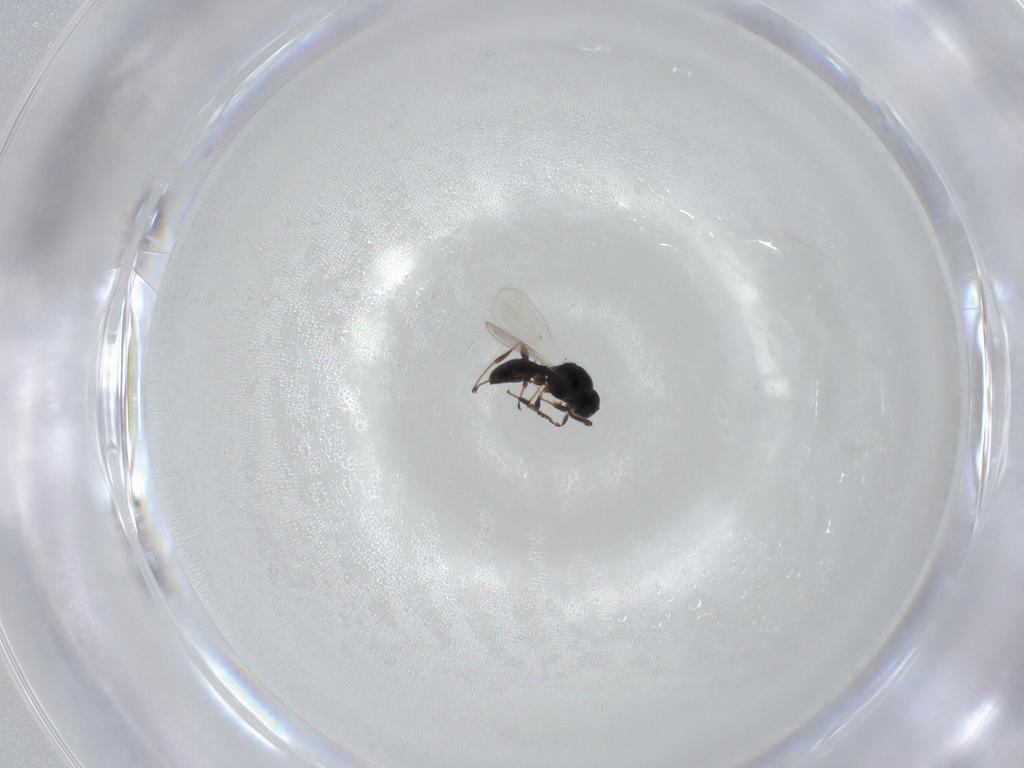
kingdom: Animalia
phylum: Arthropoda
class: Insecta
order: Hymenoptera
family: Platygastridae
